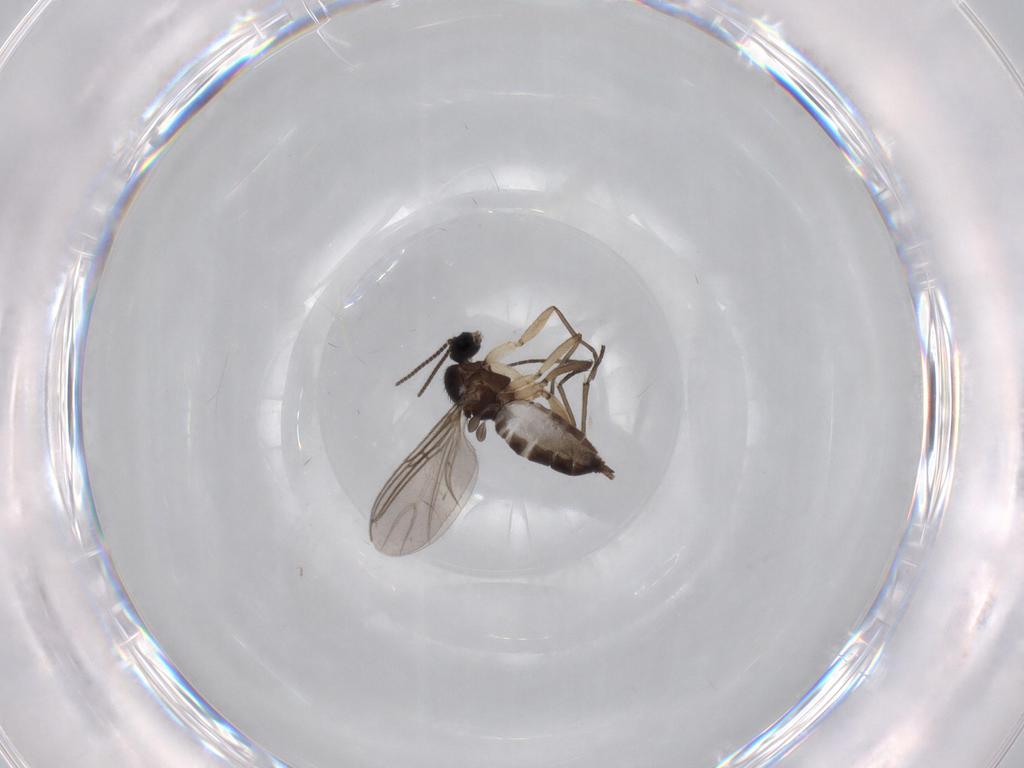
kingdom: Animalia
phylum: Arthropoda
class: Insecta
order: Diptera
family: Sciaridae
